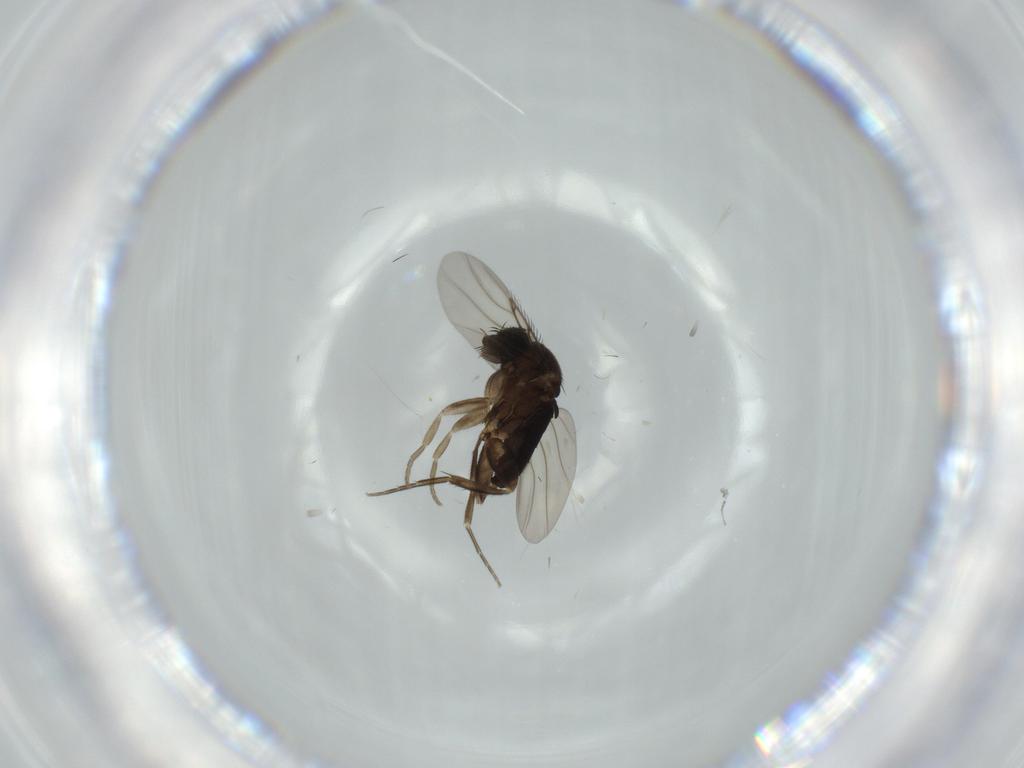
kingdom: Animalia
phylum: Arthropoda
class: Insecta
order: Diptera
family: Phoridae
